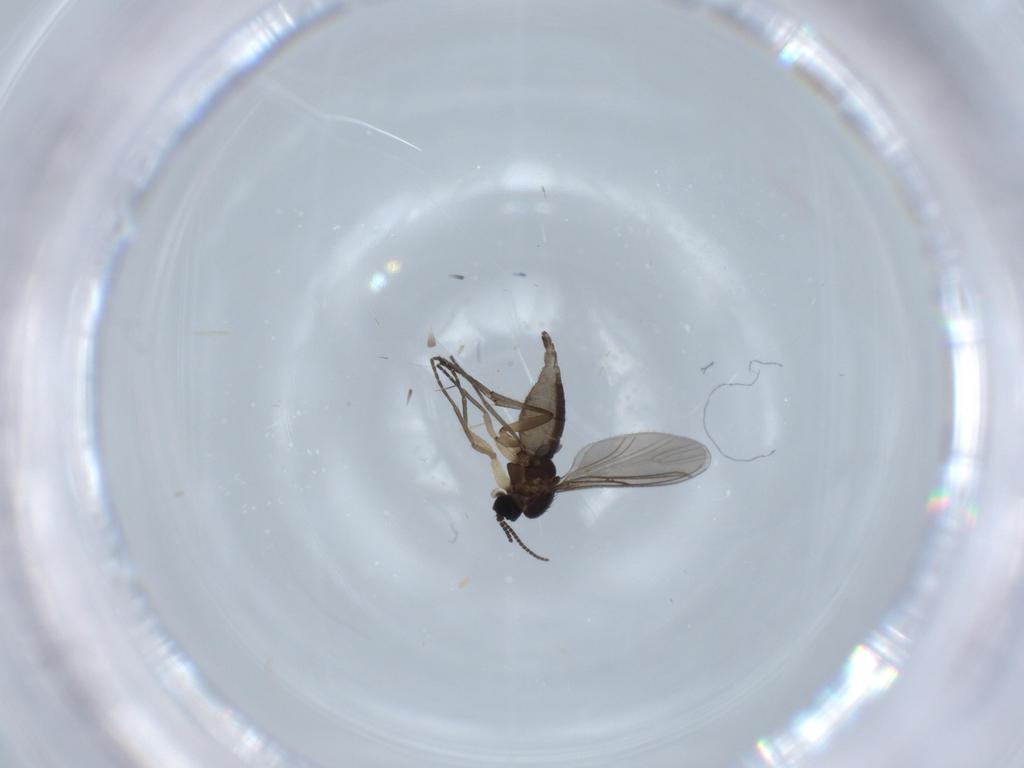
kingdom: Animalia
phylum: Arthropoda
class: Insecta
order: Diptera
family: Sciaridae
